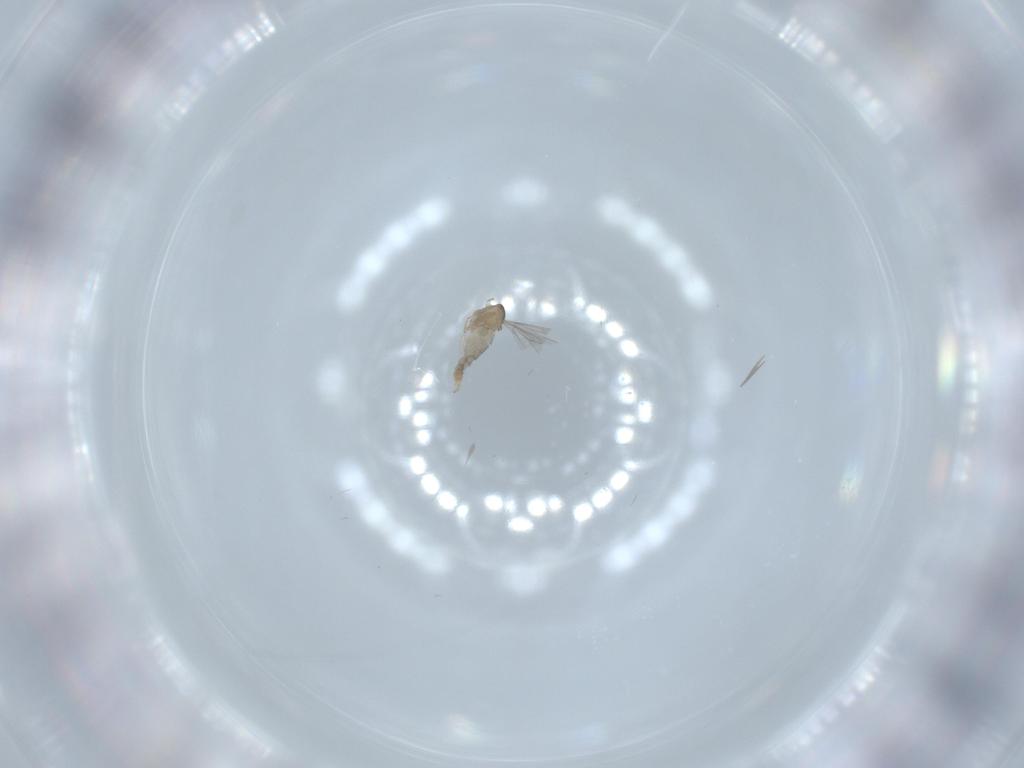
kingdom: Animalia
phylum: Arthropoda
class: Insecta
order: Diptera
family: Cecidomyiidae
